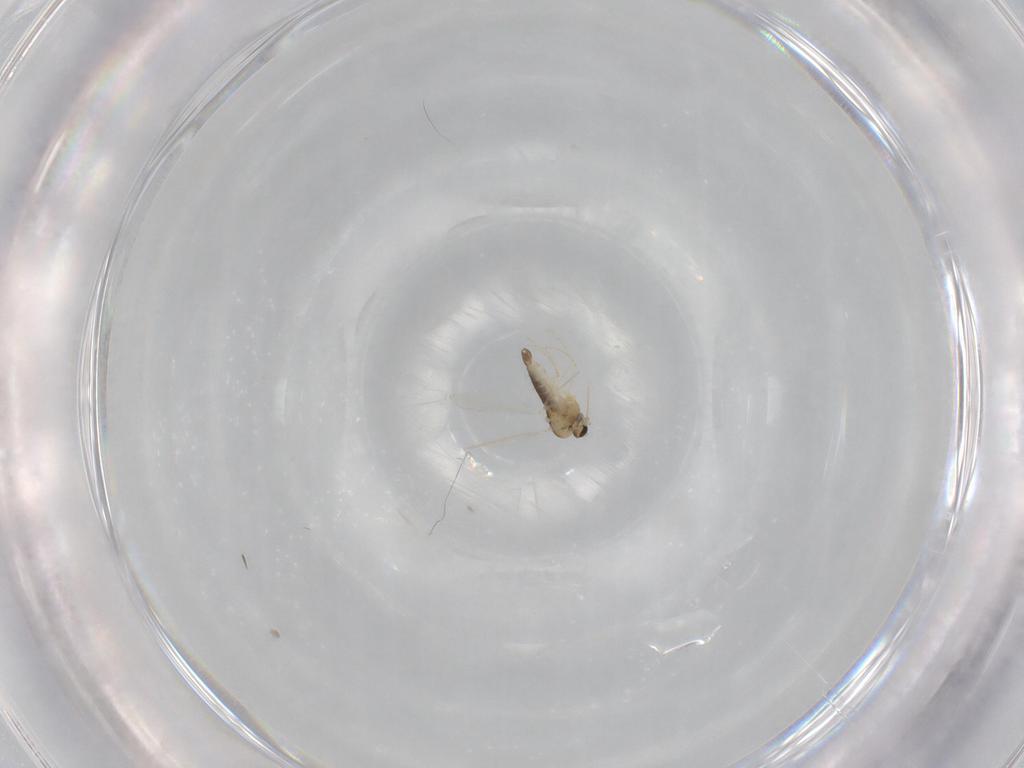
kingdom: Animalia
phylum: Arthropoda
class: Insecta
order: Diptera
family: Chironomidae
